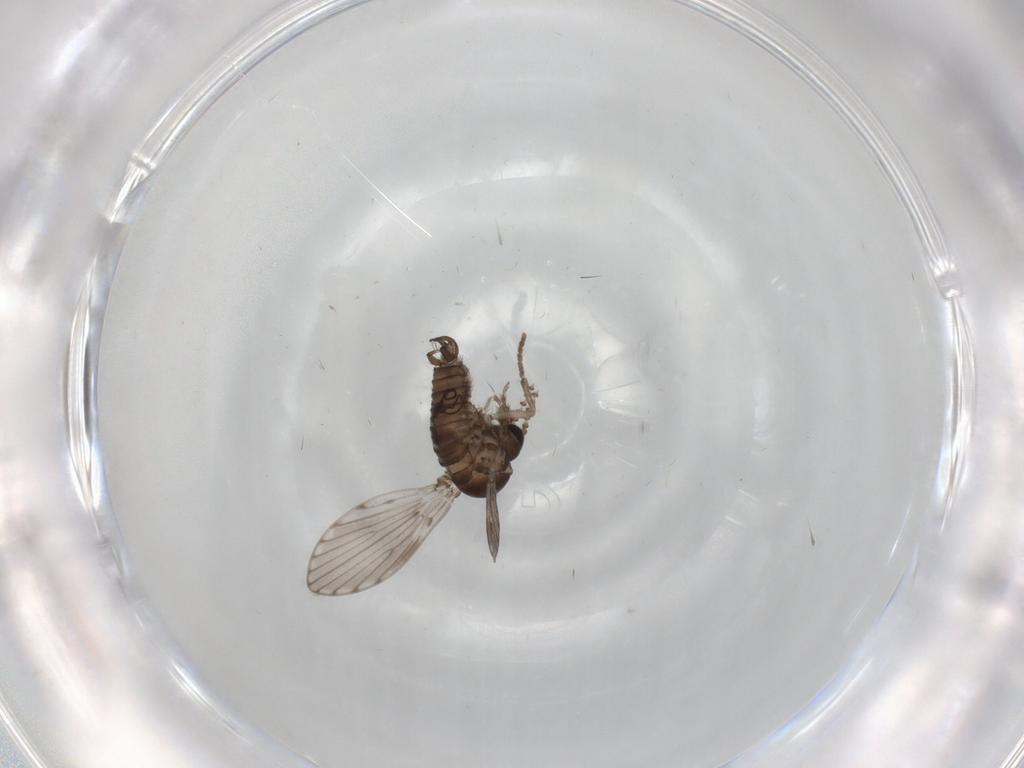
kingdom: Animalia
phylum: Arthropoda
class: Insecta
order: Diptera
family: Psychodidae
